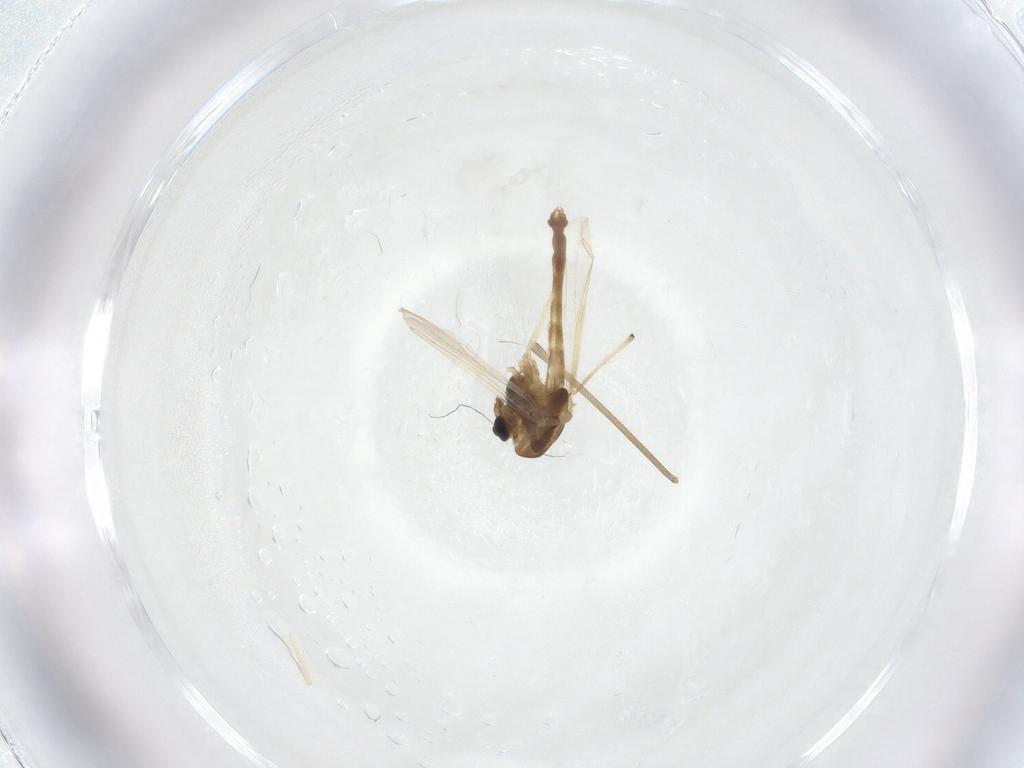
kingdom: Animalia
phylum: Arthropoda
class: Insecta
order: Diptera
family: Chironomidae
